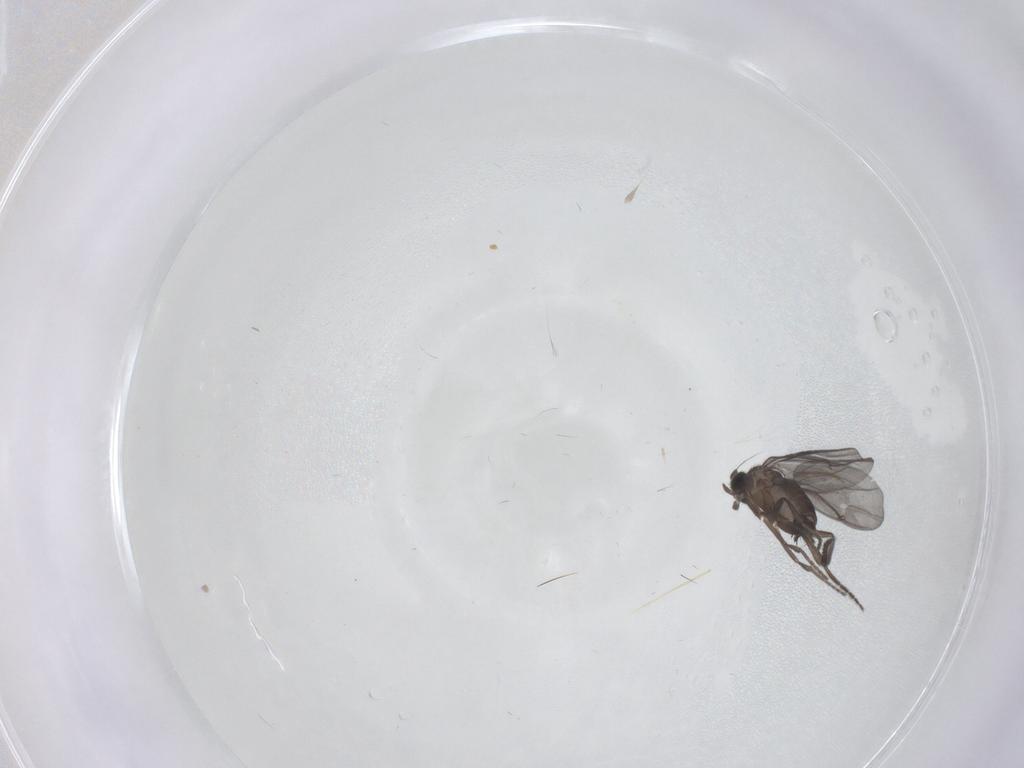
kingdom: Animalia
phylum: Arthropoda
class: Insecta
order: Diptera
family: Phoridae
